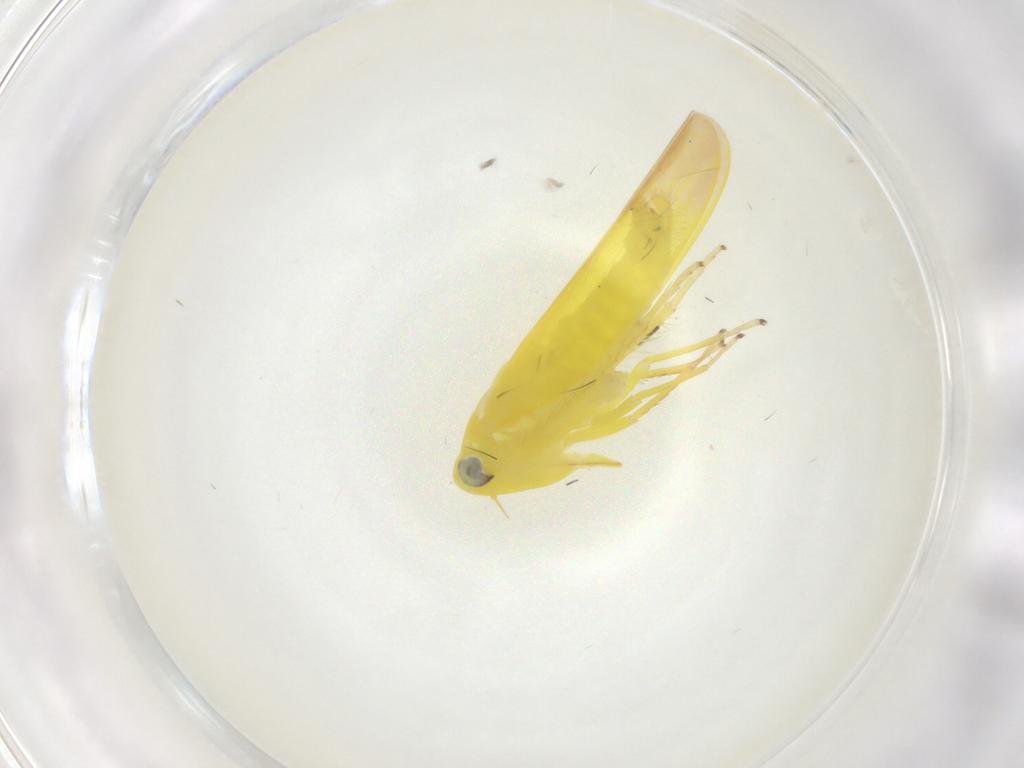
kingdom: Animalia
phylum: Arthropoda
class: Insecta
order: Hemiptera
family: Cicadellidae
